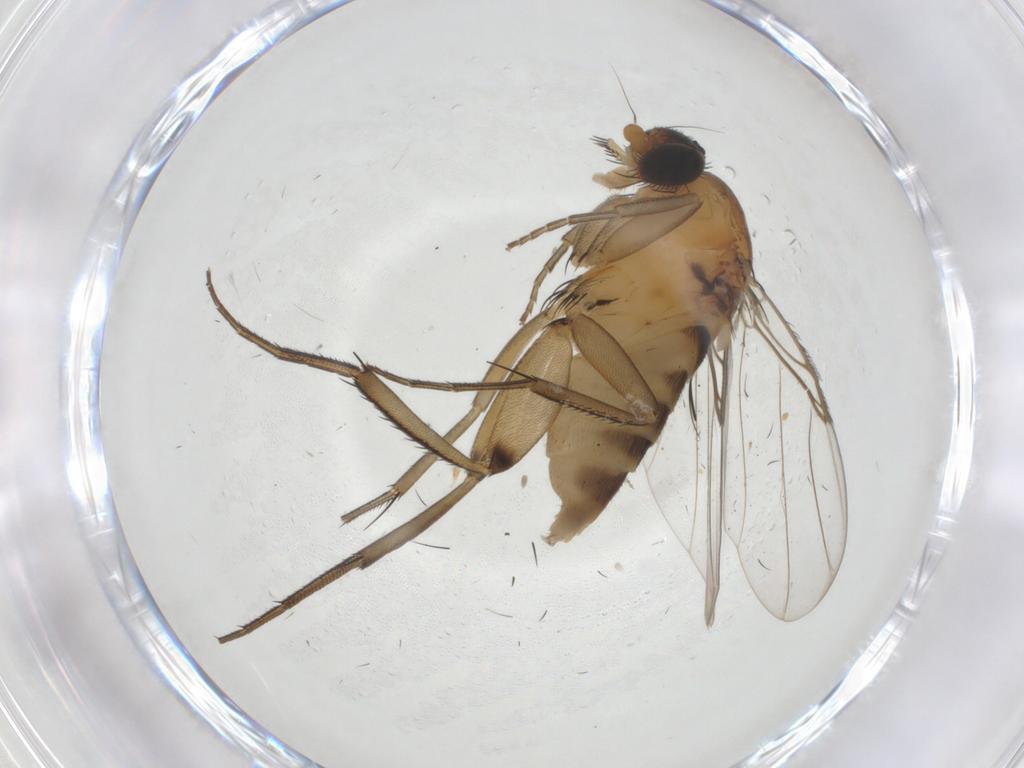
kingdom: Animalia
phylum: Arthropoda
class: Insecta
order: Diptera
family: Phoridae
